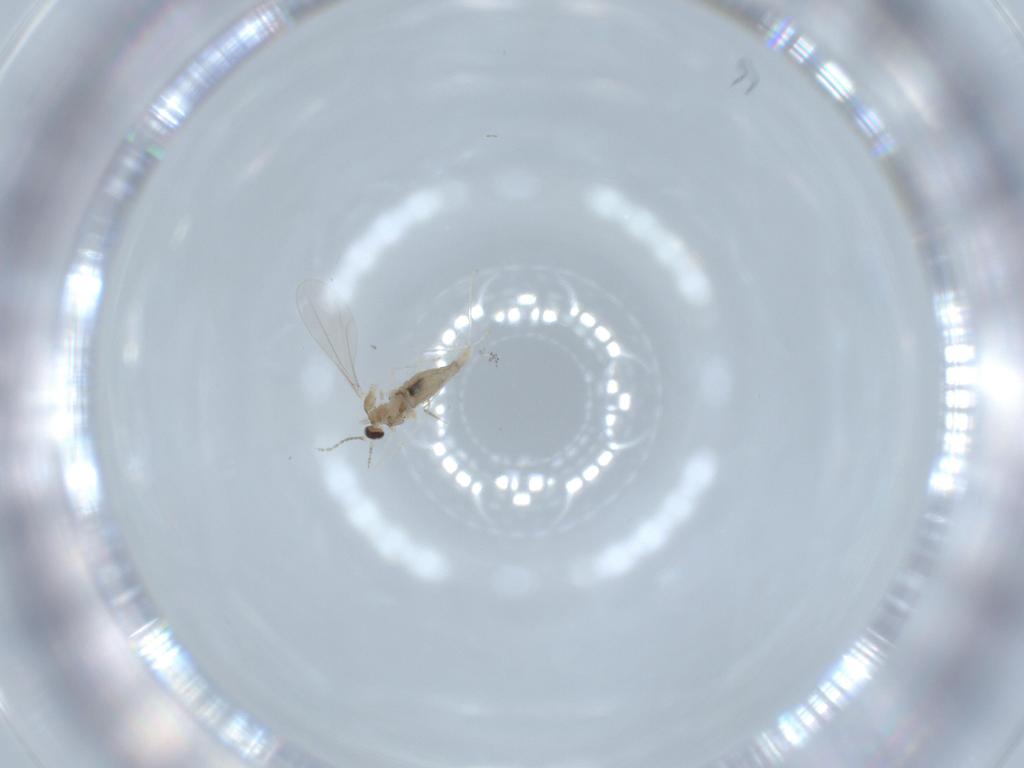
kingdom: Animalia
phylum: Arthropoda
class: Insecta
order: Diptera
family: Cecidomyiidae
